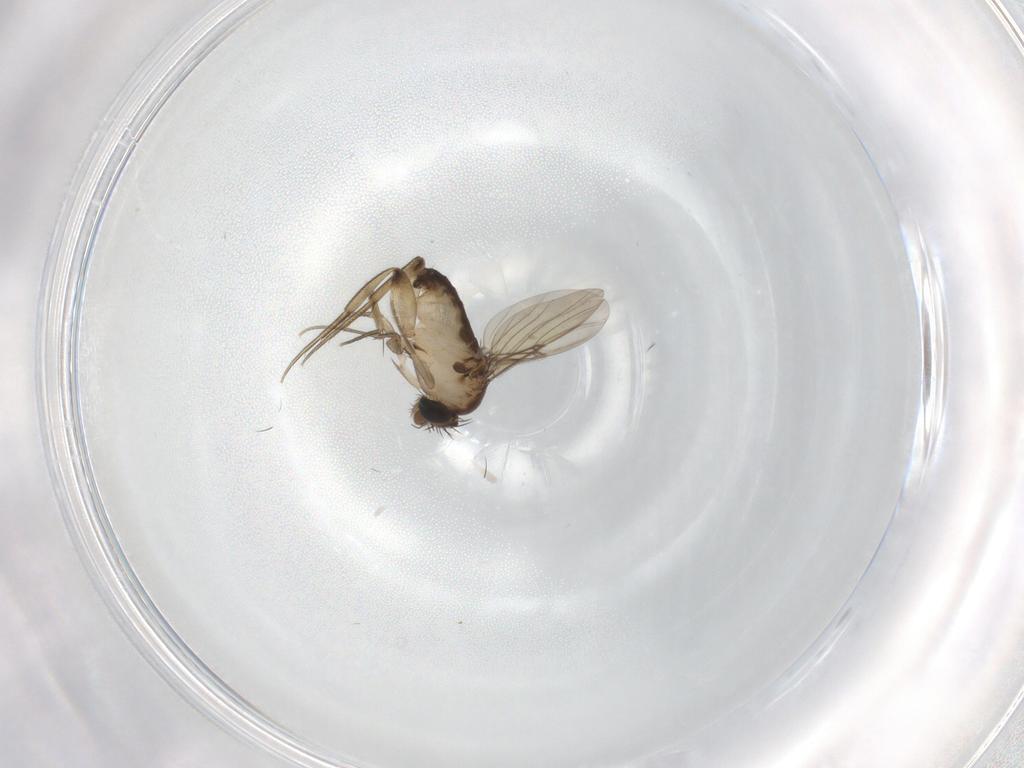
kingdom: Animalia
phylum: Arthropoda
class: Insecta
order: Diptera
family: Phoridae
